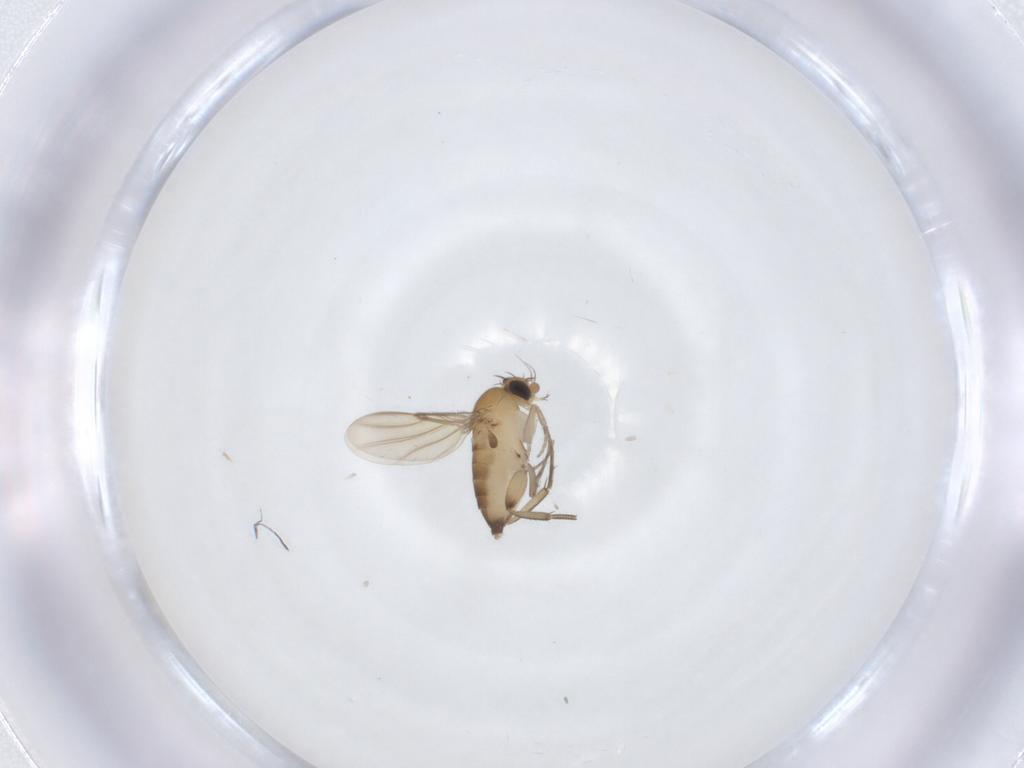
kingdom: Animalia
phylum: Arthropoda
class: Insecta
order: Diptera
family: Phoridae
